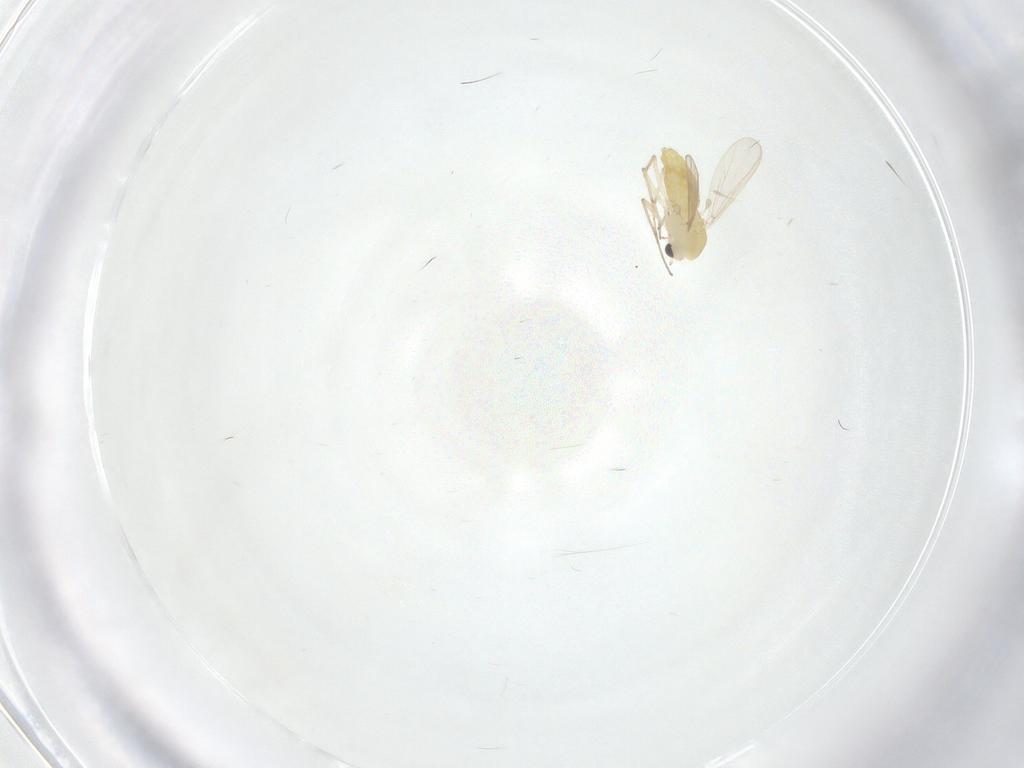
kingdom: Animalia
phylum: Arthropoda
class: Insecta
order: Diptera
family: Chironomidae
